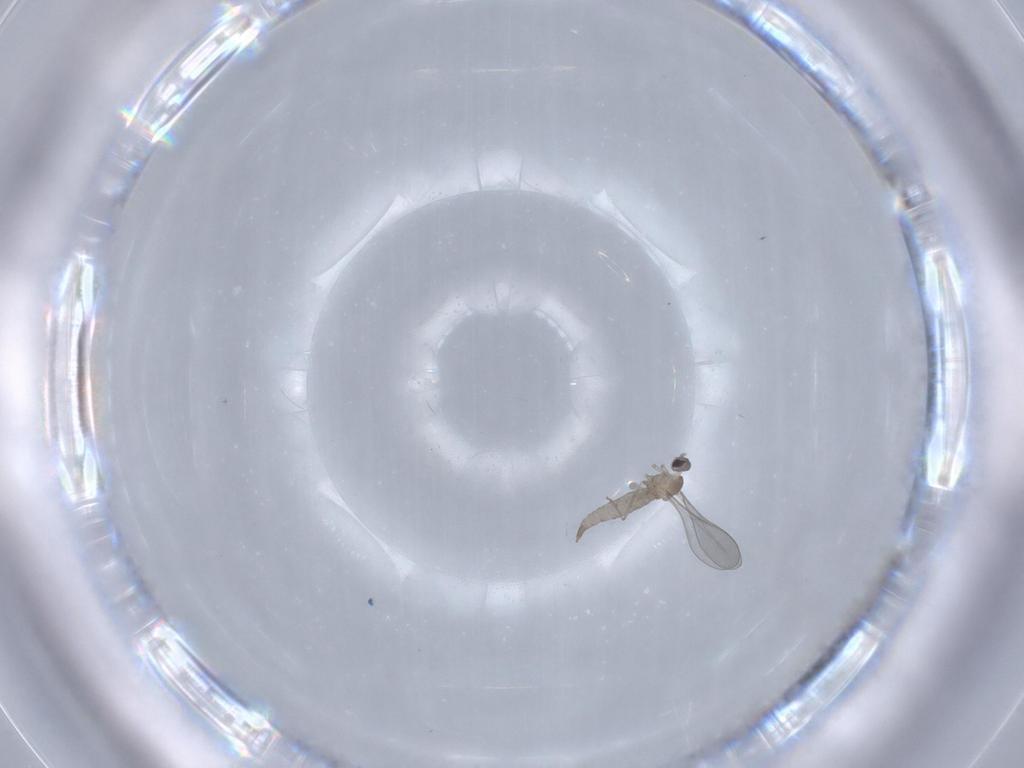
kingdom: Animalia
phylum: Arthropoda
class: Insecta
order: Diptera
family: Cecidomyiidae
